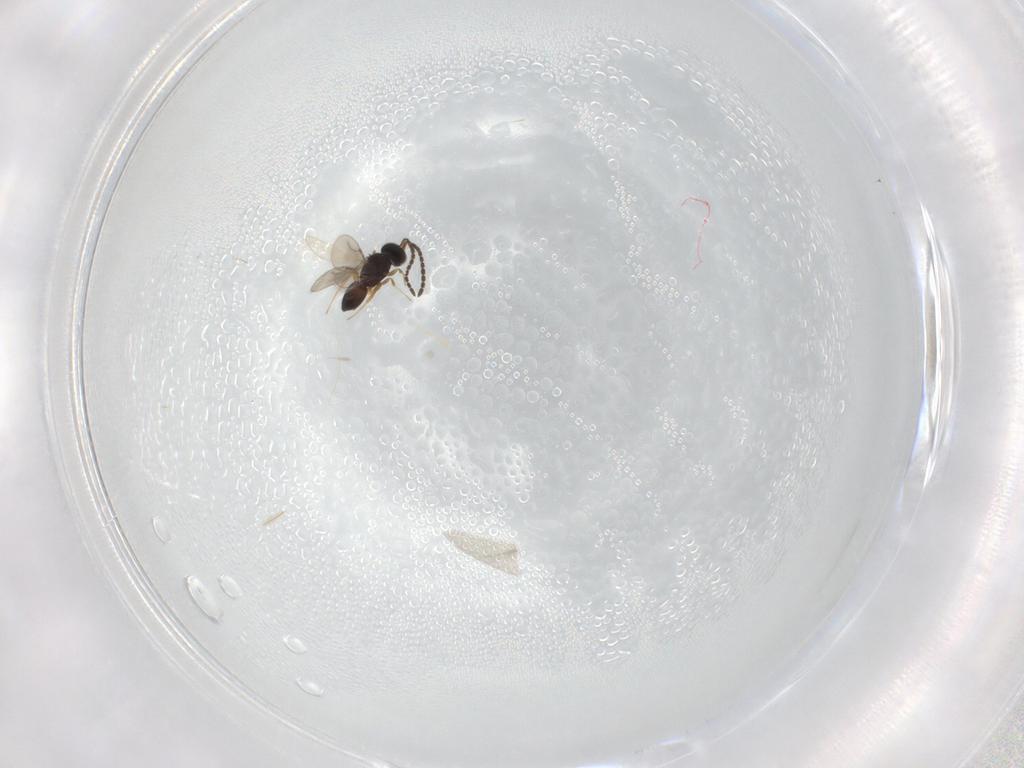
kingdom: Animalia
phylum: Arthropoda
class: Insecta
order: Hymenoptera
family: Ceraphronidae
